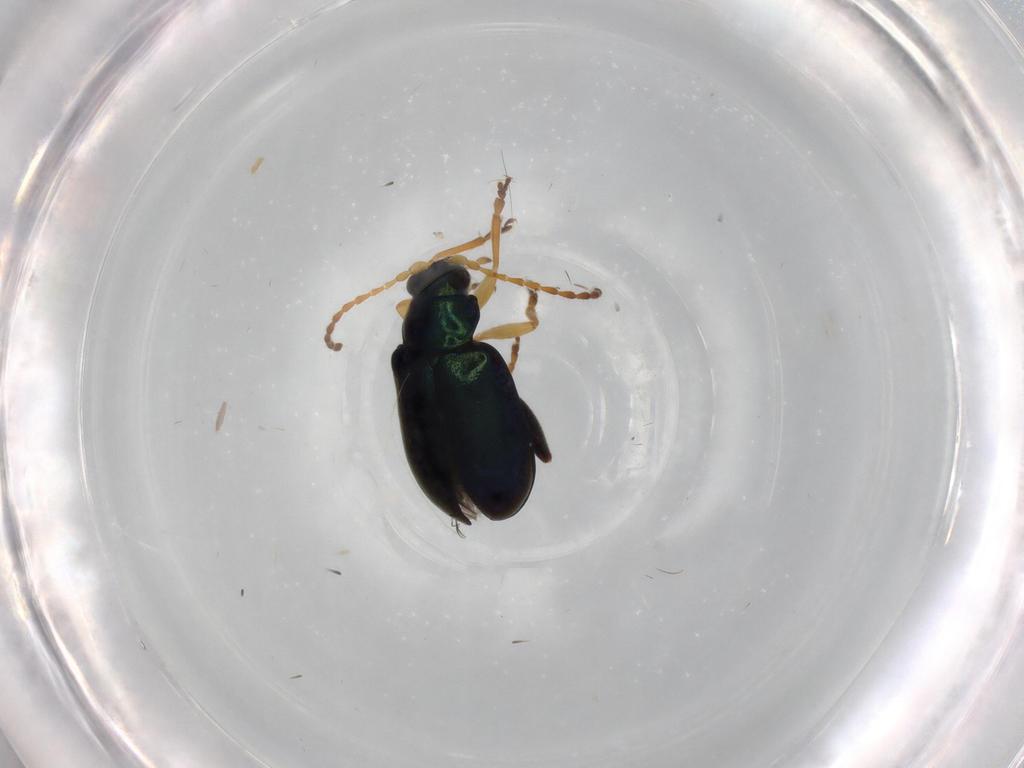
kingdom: Animalia
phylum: Arthropoda
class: Insecta
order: Coleoptera
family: Chrysomelidae
